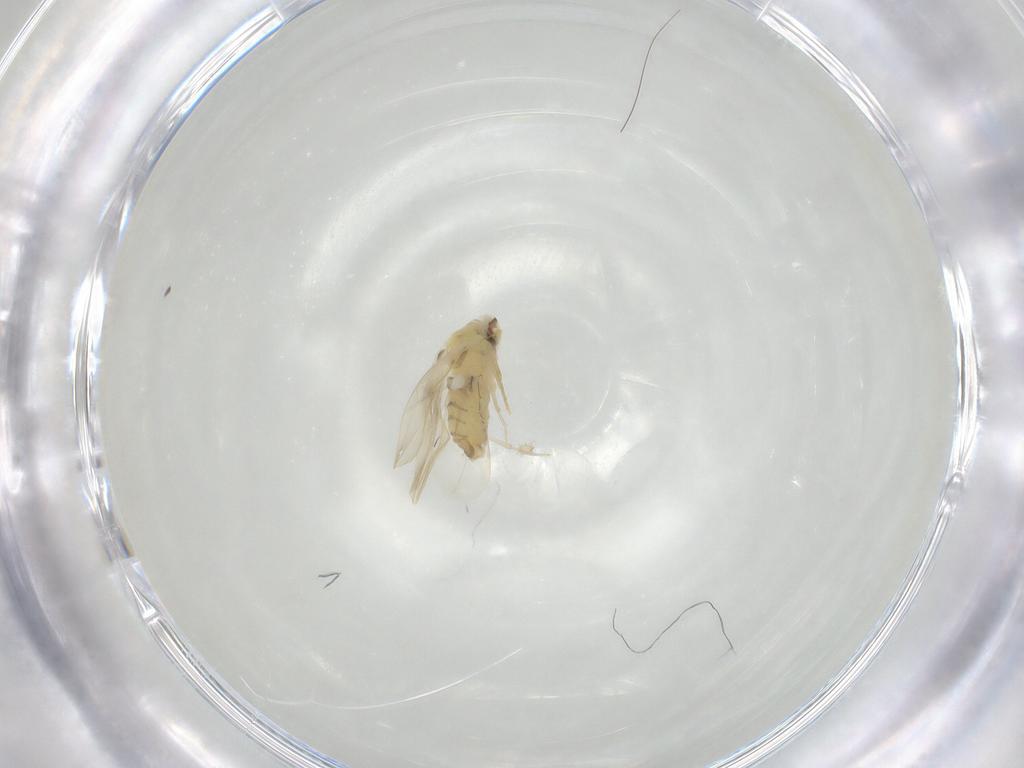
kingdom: Animalia
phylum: Arthropoda
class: Insecta
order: Hemiptera
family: Aleyrodidae
